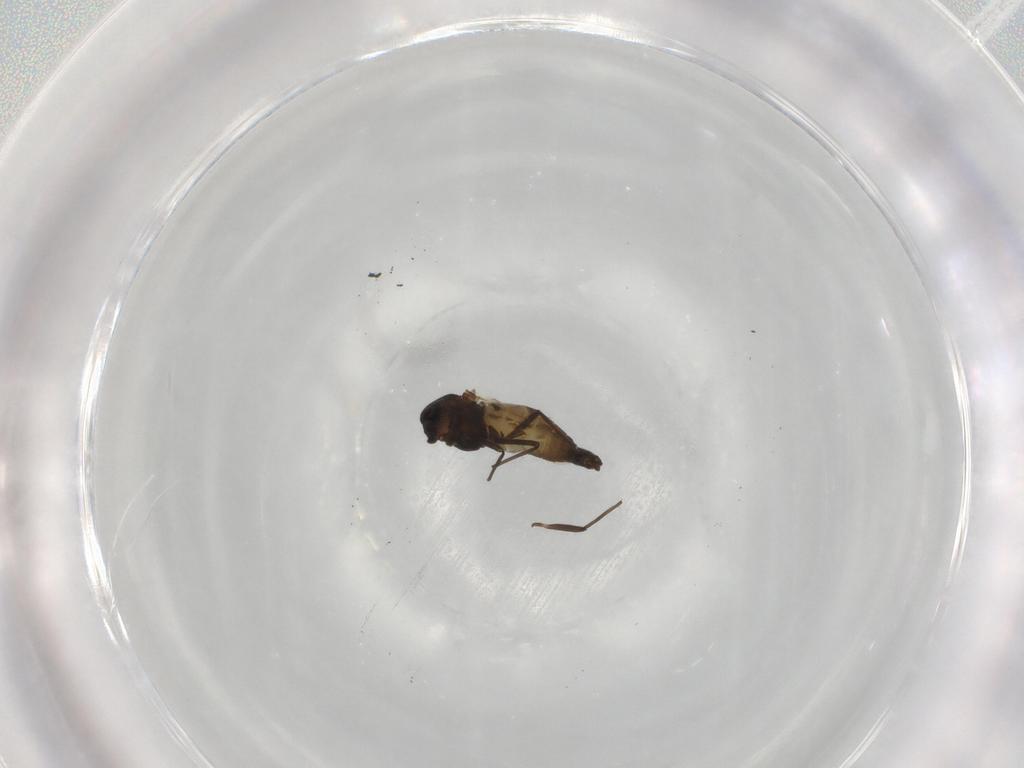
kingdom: Animalia
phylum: Arthropoda
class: Insecta
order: Diptera
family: Chironomidae
